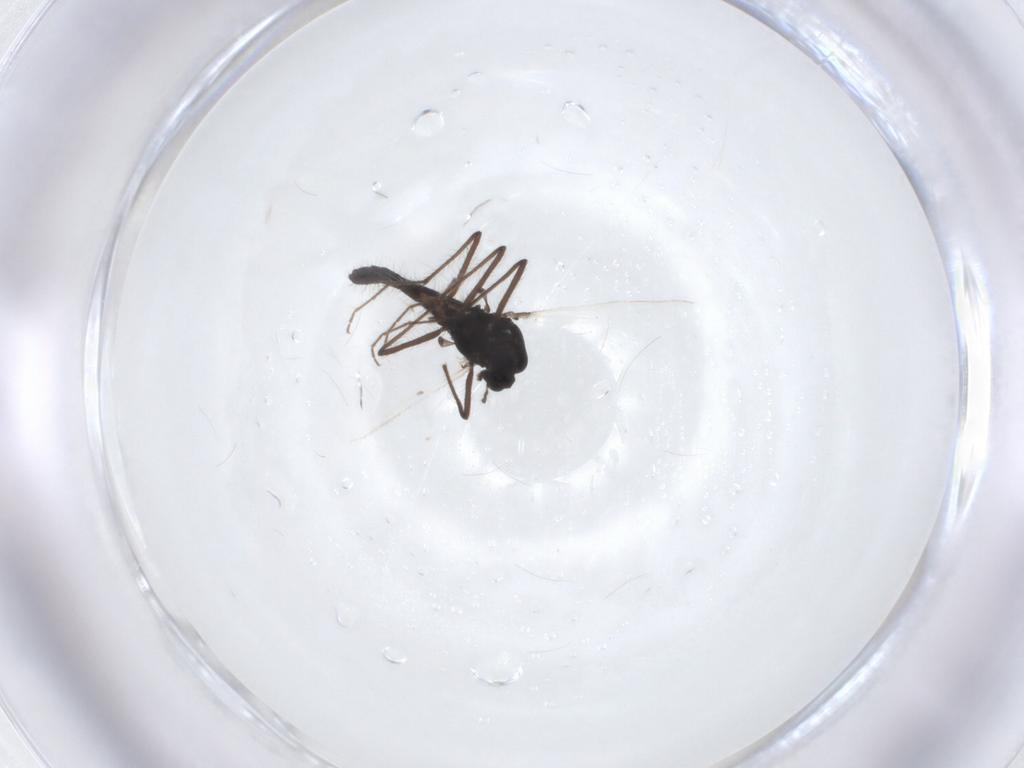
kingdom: Animalia
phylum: Arthropoda
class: Insecta
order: Diptera
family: Chironomidae
